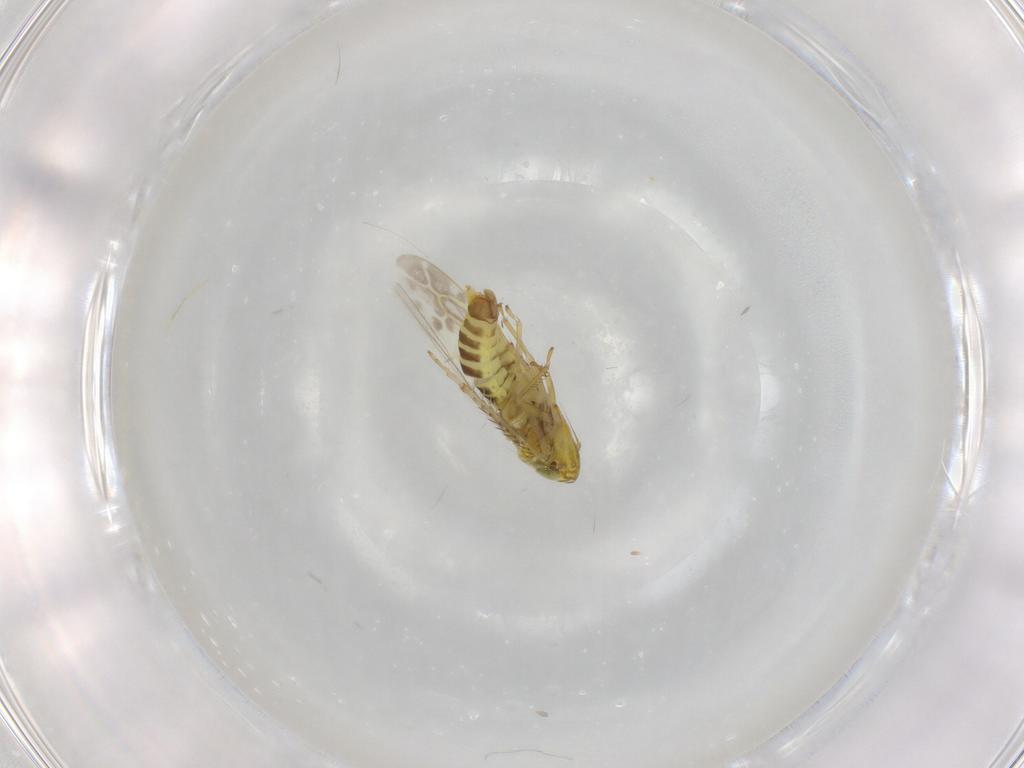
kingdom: Animalia
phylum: Arthropoda
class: Insecta
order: Hemiptera
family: Cicadellidae
